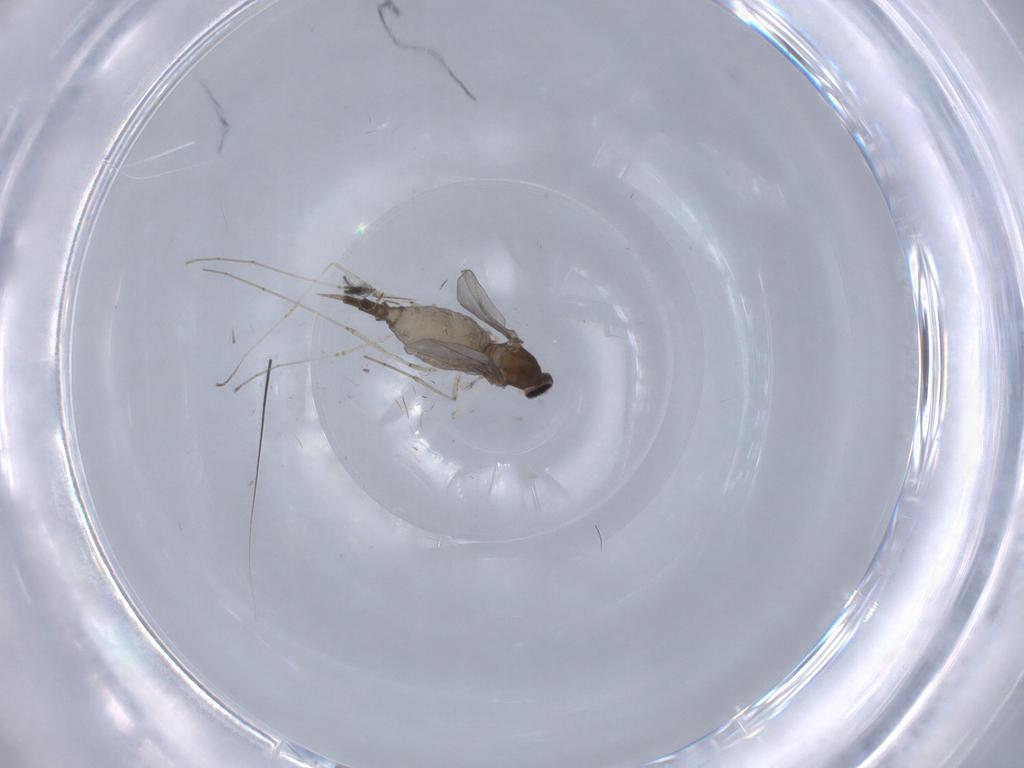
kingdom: Animalia
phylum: Arthropoda
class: Insecta
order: Diptera
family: Cecidomyiidae
